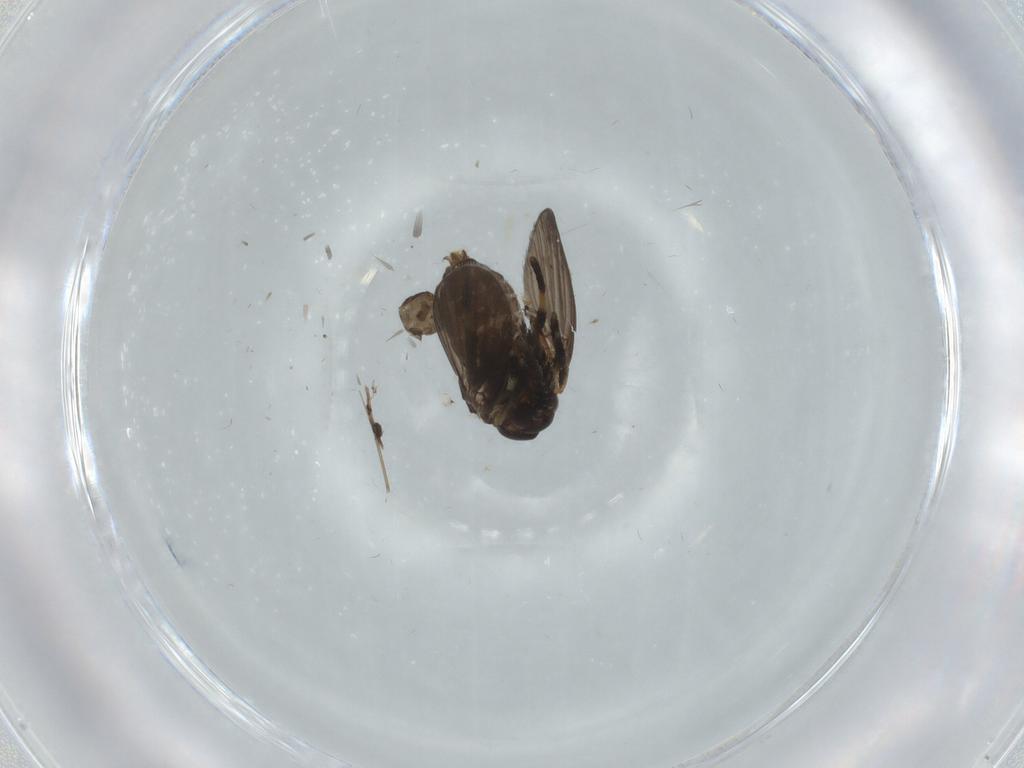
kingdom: Animalia
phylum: Arthropoda
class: Insecta
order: Diptera
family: Psychodidae
